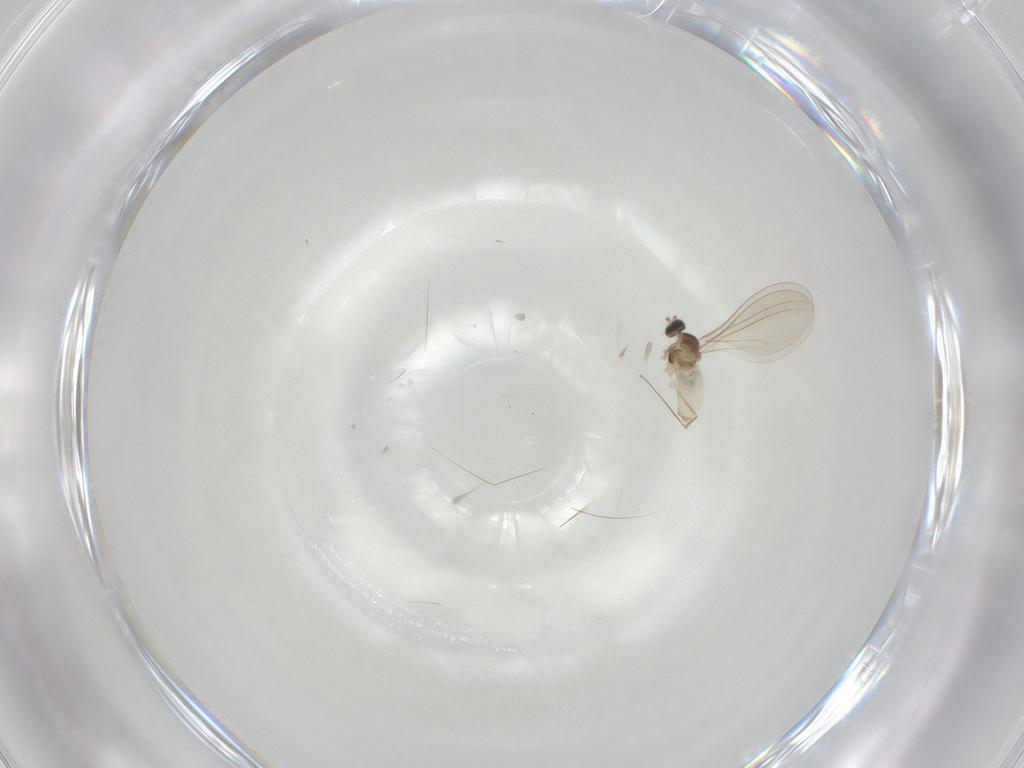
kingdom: Animalia
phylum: Arthropoda
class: Insecta
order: Diptera
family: Cecidomyiidae
